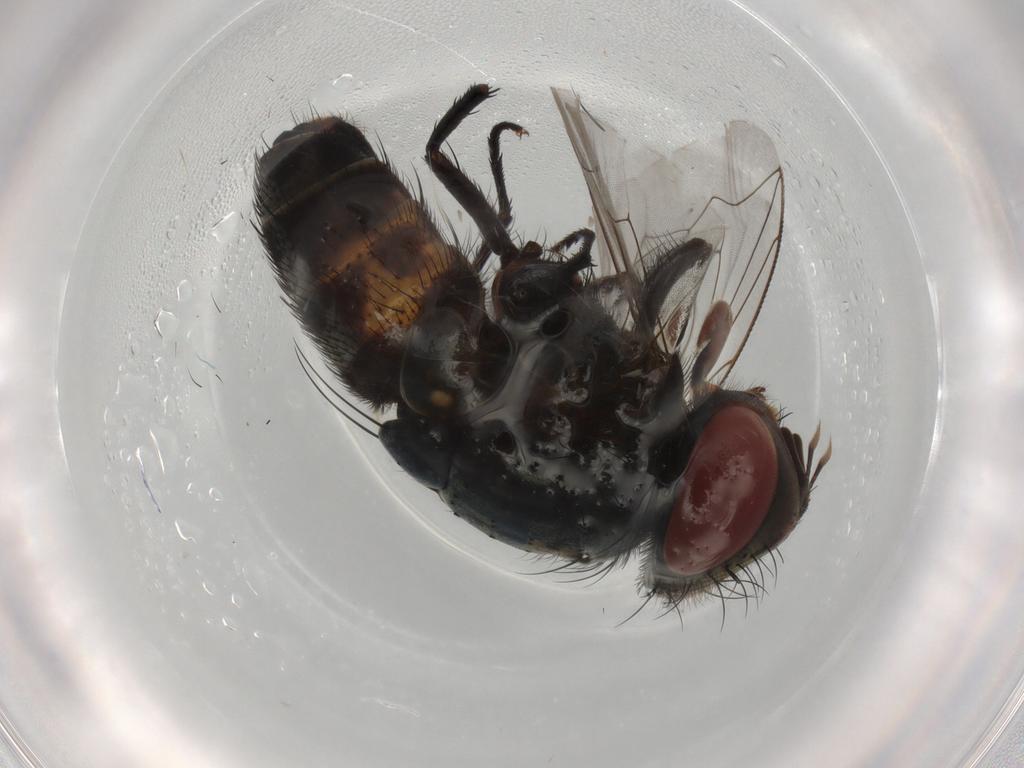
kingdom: Animalia
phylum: Arthropoda
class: Insecta
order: Diptera
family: Sarcophagidae
